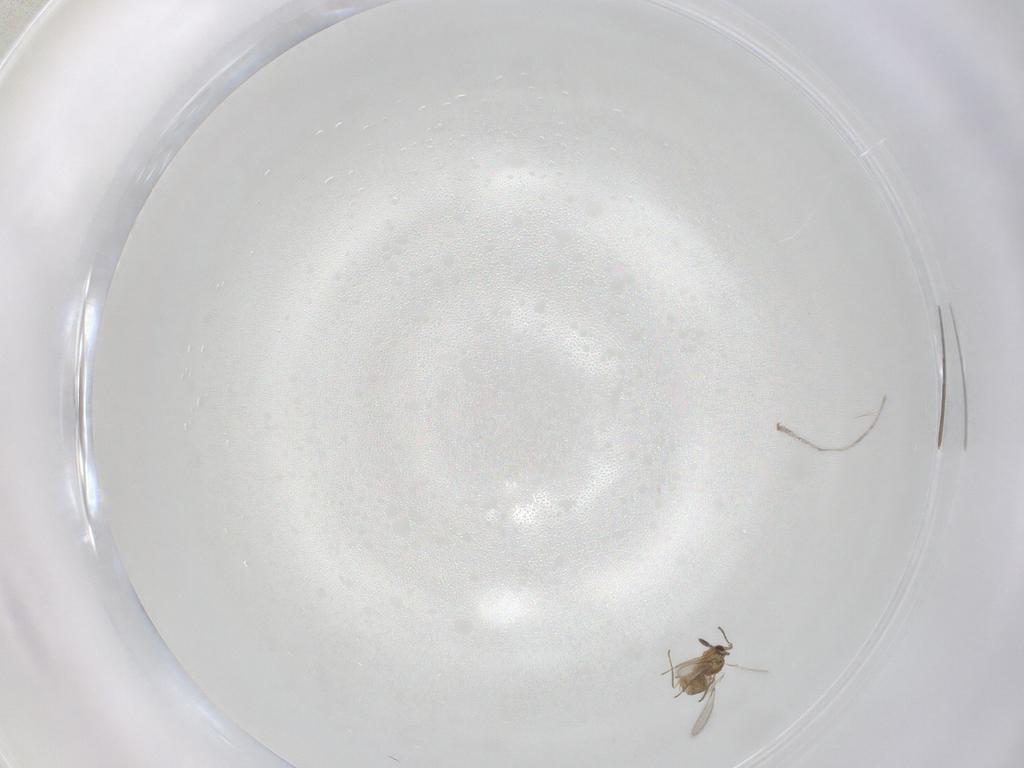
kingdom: Animalia
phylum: Arthropoda
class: Insecta
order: Hymenoptera
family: Mymaridae
